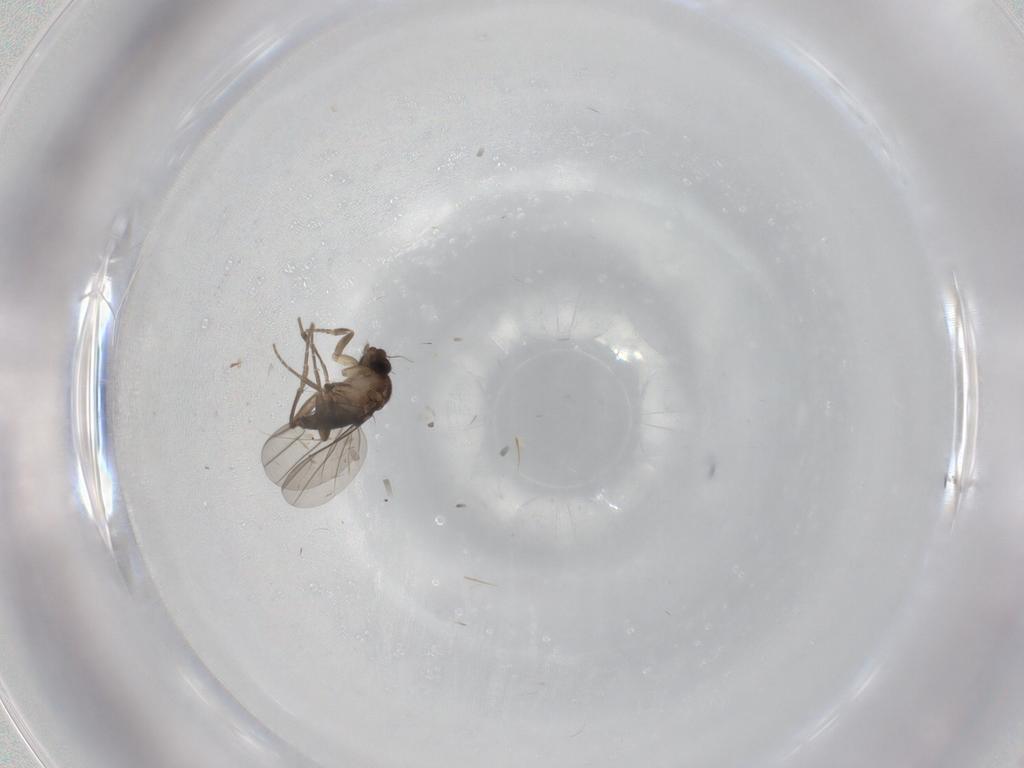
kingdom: Animalia
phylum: Arthropoda
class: Insecta
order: Diptera
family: Phoridae
